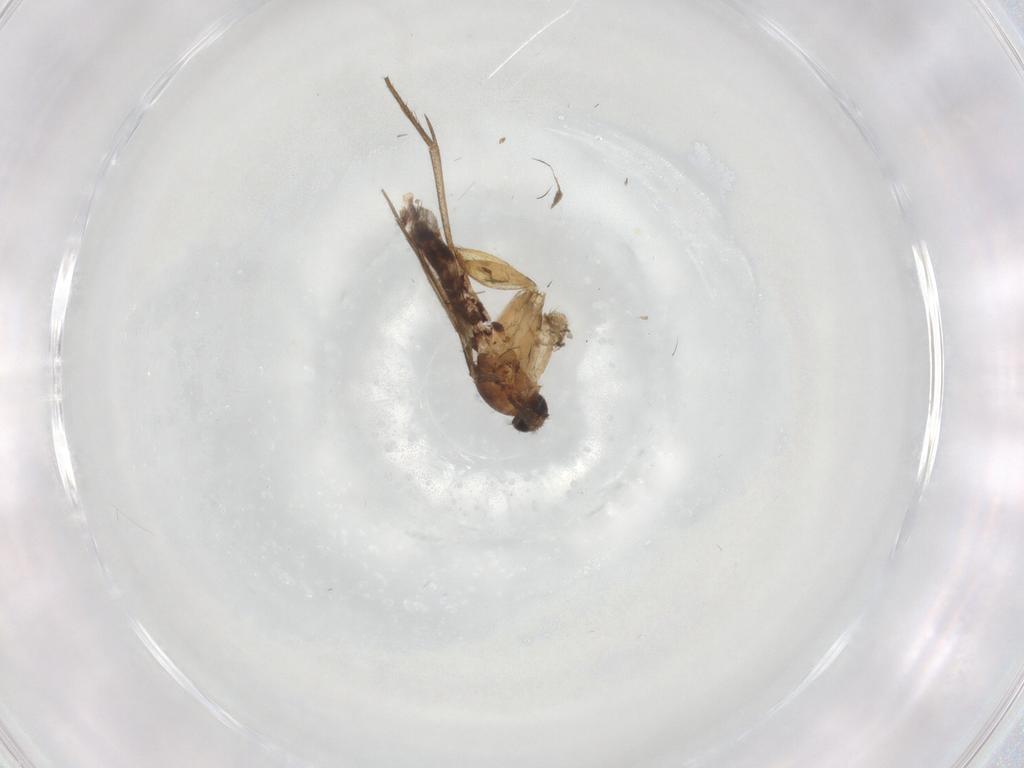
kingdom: Animalia
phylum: Arthropoda
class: Insecta
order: Diptera
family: Mycetophilidae
